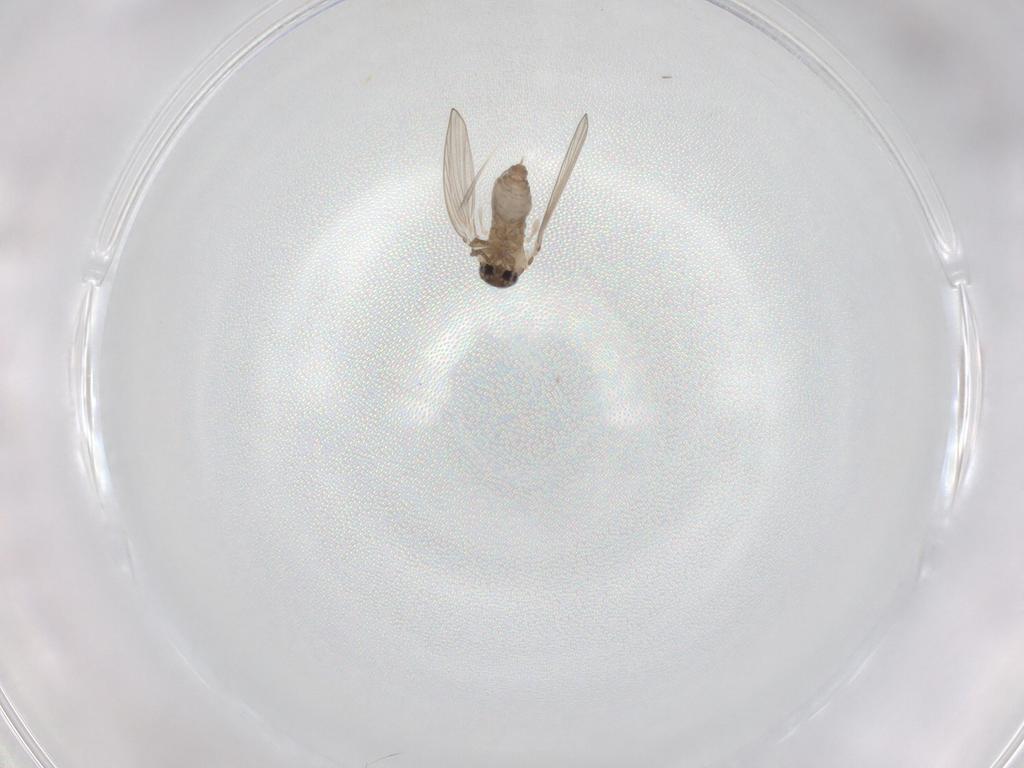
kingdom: Animalia
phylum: Arthropoda
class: Insecta
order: Diptera
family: Psychodidae
